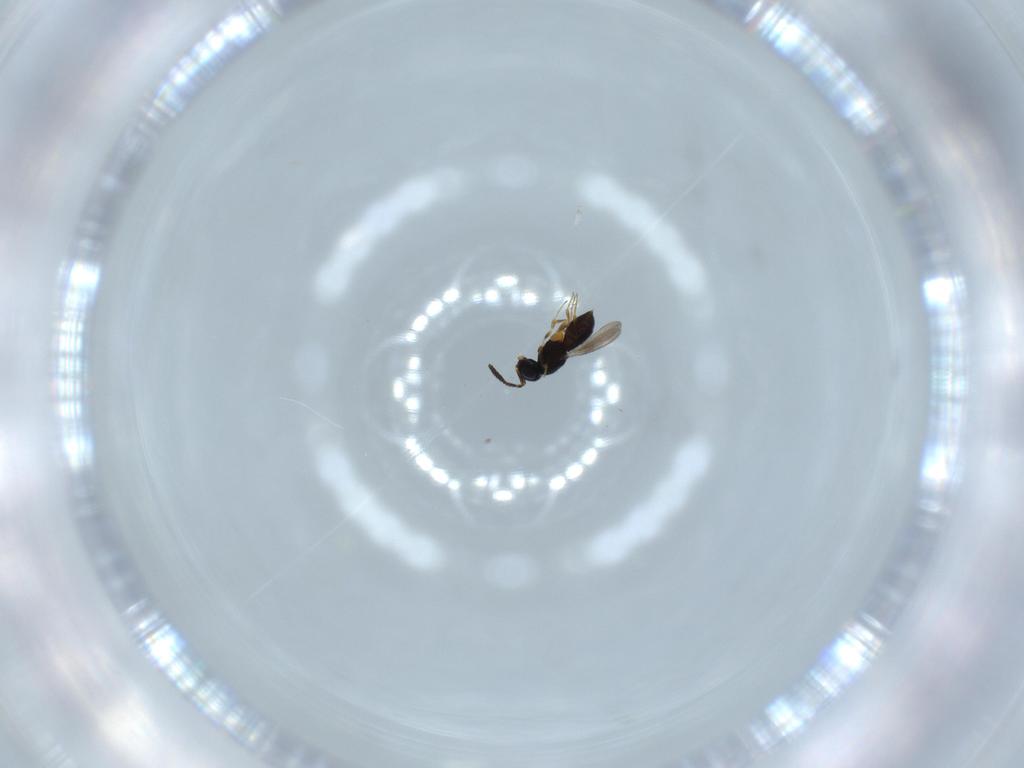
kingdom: Animalia
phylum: Arthropoda
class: Insecta
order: Hymenoptera
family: Scelionidae
